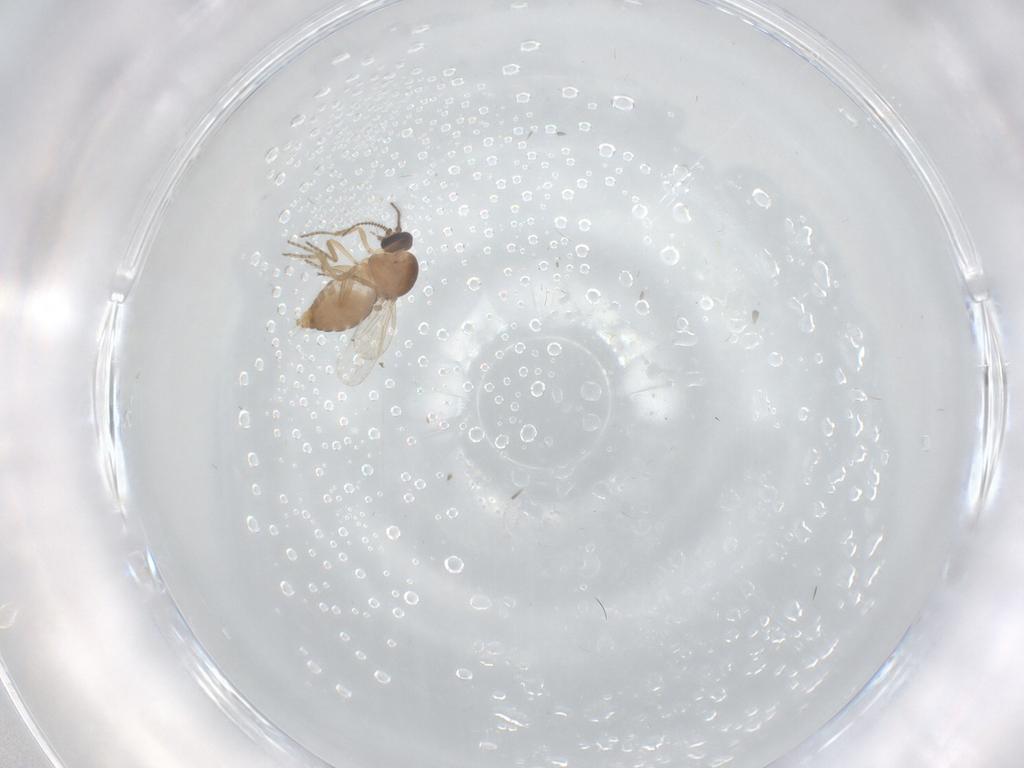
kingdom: Animalia
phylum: Arthropoda
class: Insecta
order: Diptera
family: Ceratopogonidae
